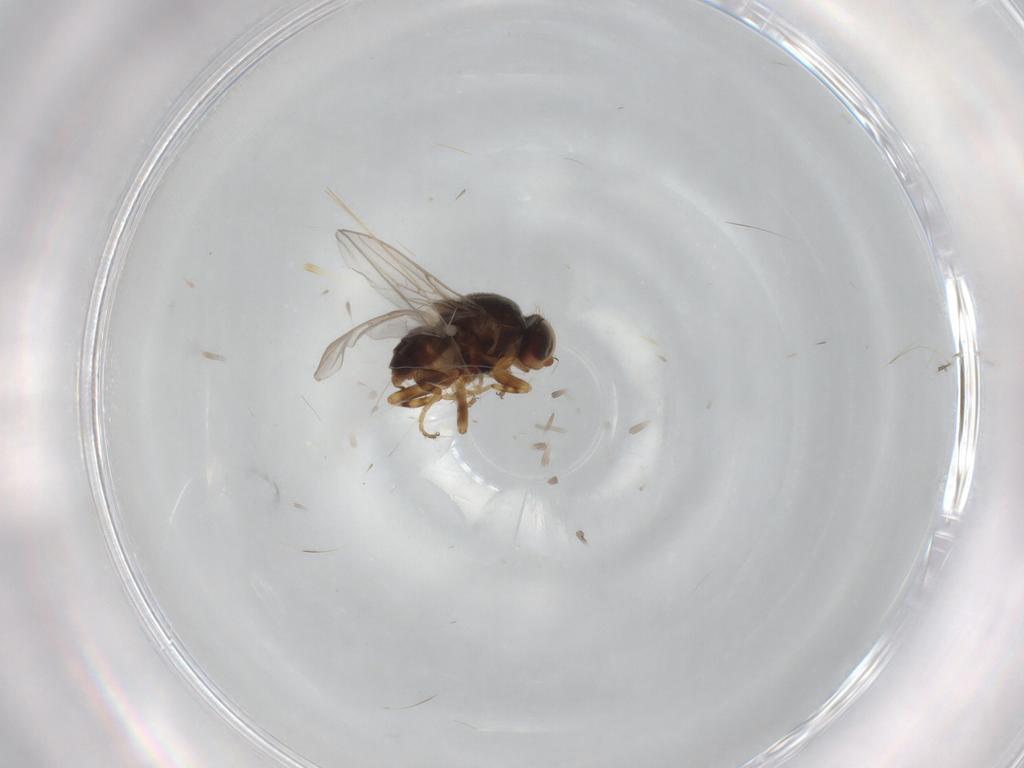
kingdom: Animalia
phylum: Arthropoda
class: Insecta
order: Diptera
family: Chloropidae
